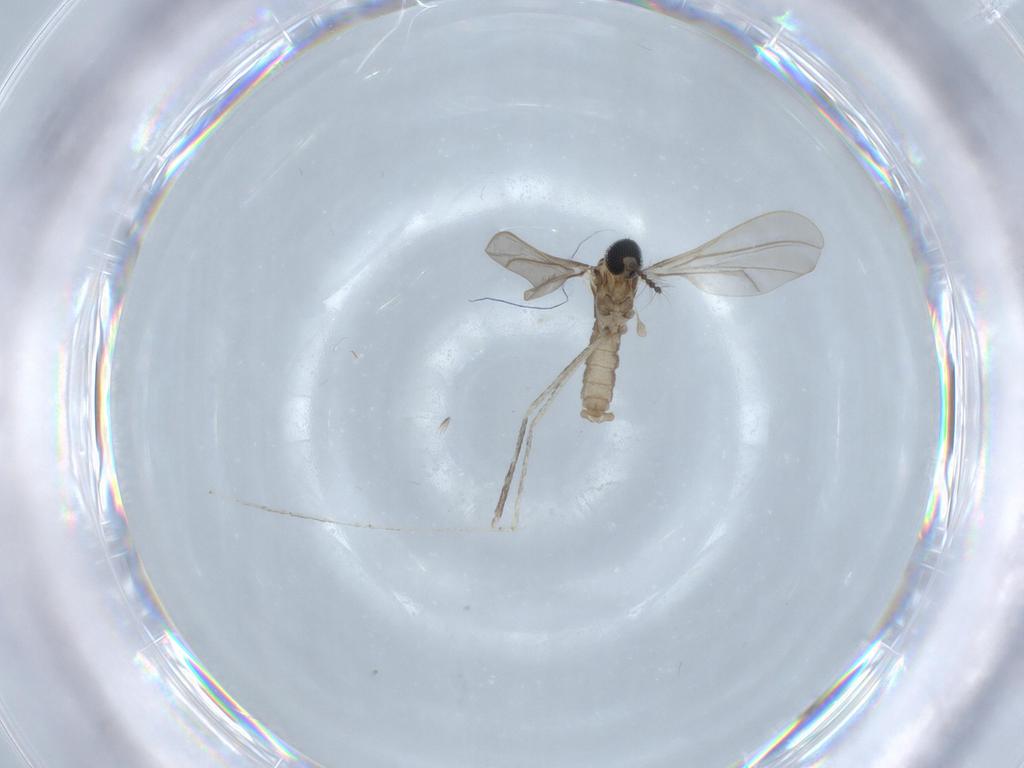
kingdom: Animalia
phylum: Arthropoda
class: Insecta
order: Diptera
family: Cecidomyiidae
